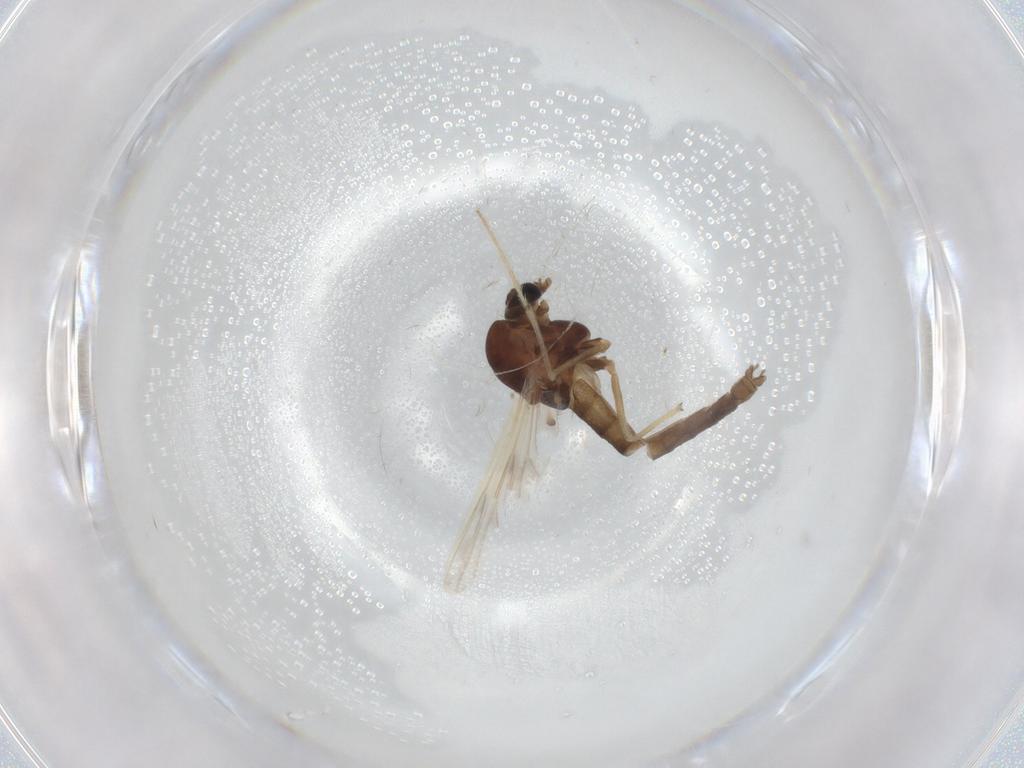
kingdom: Animalia
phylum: Arthropoda
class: Insecta
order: Diptera
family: Chironomidae
